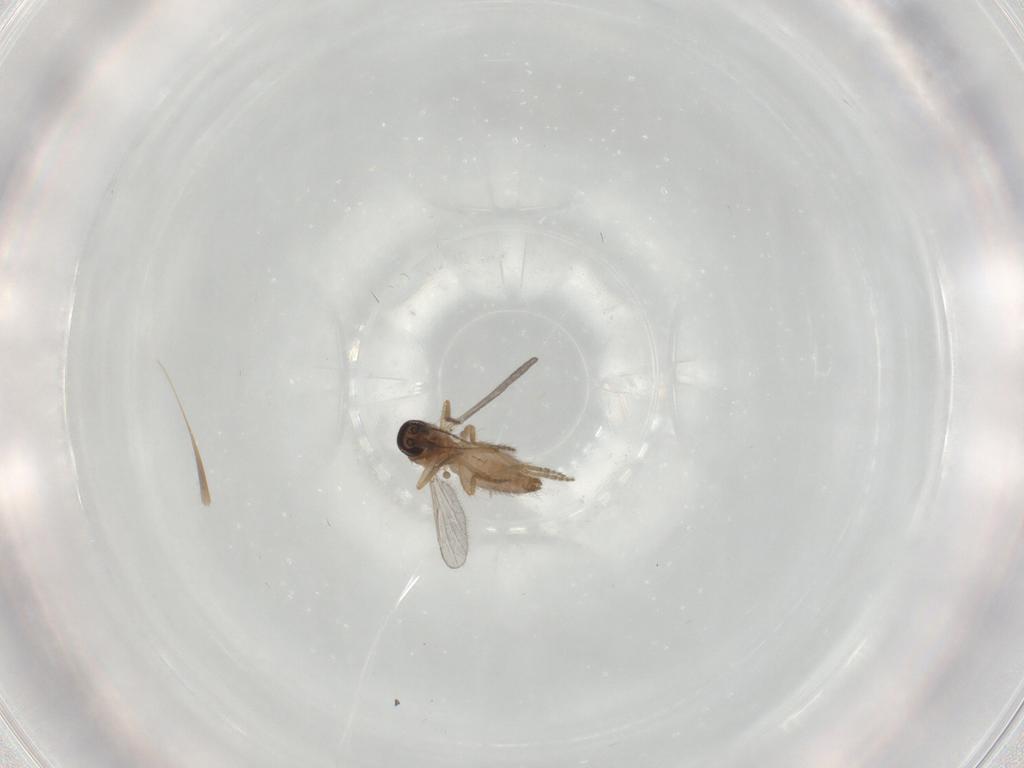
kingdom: Animalia
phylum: Arthropoda
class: Insecta
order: Diptera
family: Ceratopogonidae
